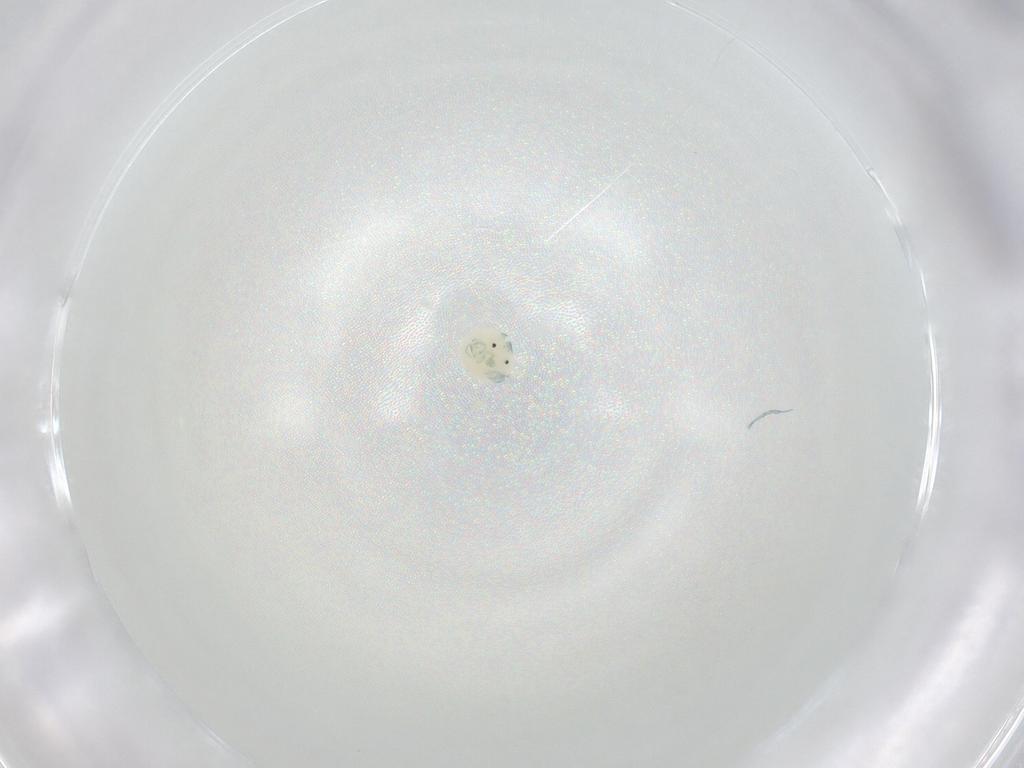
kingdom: Animalia
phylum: Arthropoda
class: Arachnida
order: Trombidiformes
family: Arrenuridae
